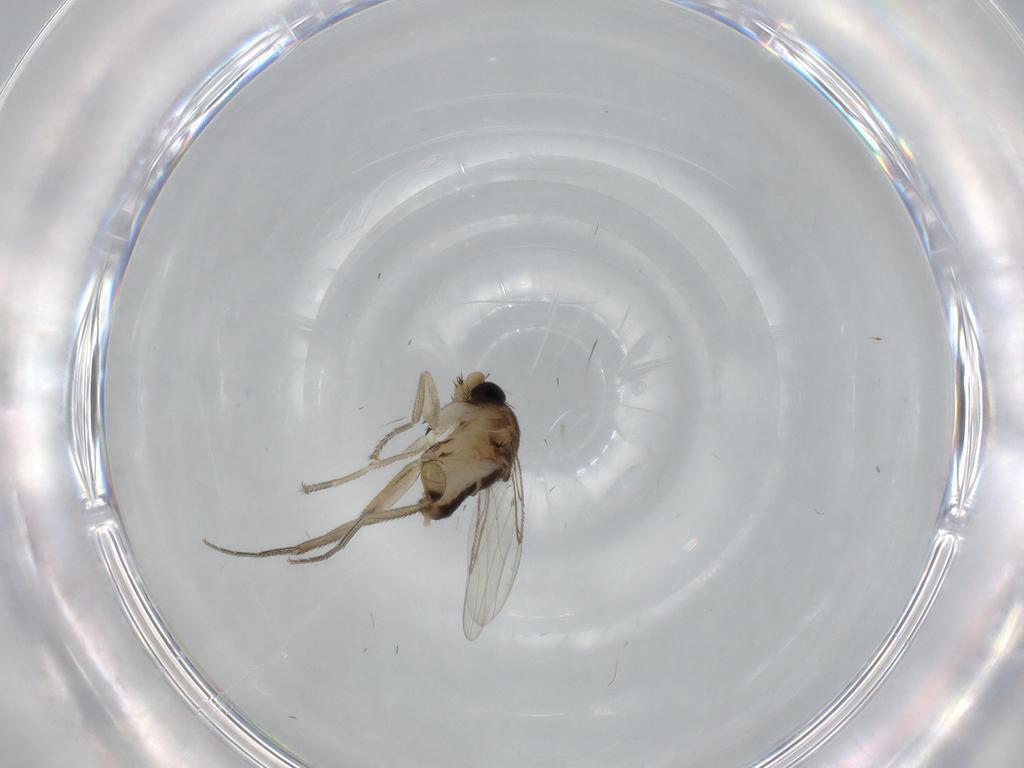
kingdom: Animalia
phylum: Arthropoda
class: Insecta
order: Diptera
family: Phoridae
